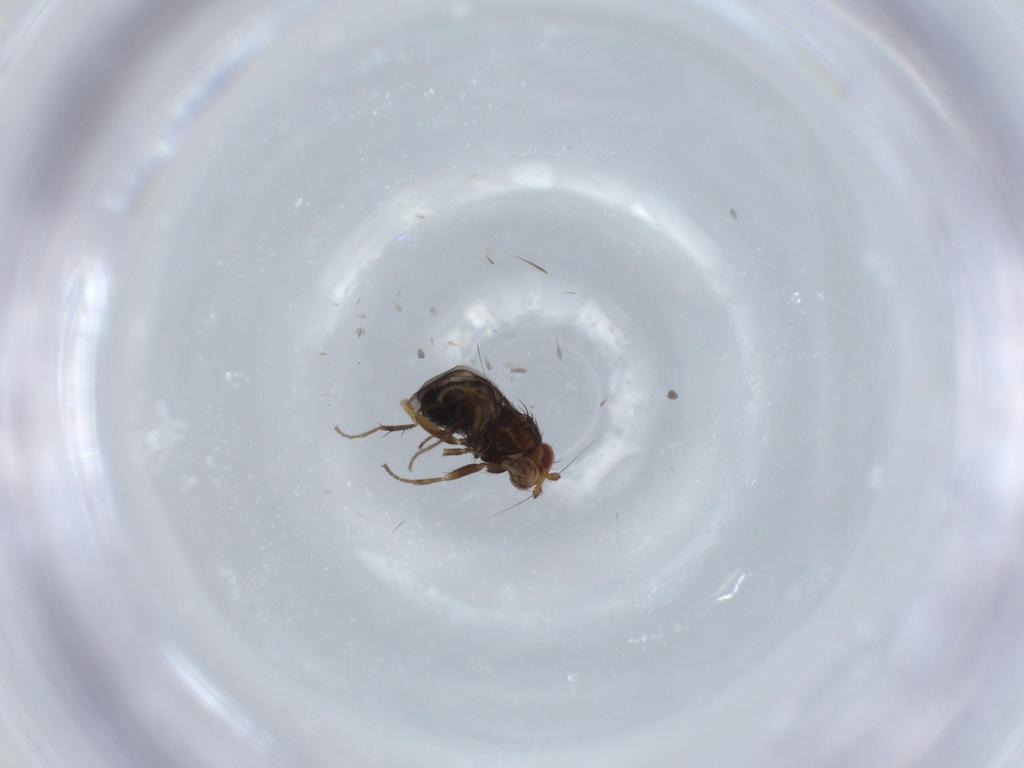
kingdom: Animalia
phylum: Arthropoda
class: Insecta
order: Diptera
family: Sphaeroceridae
